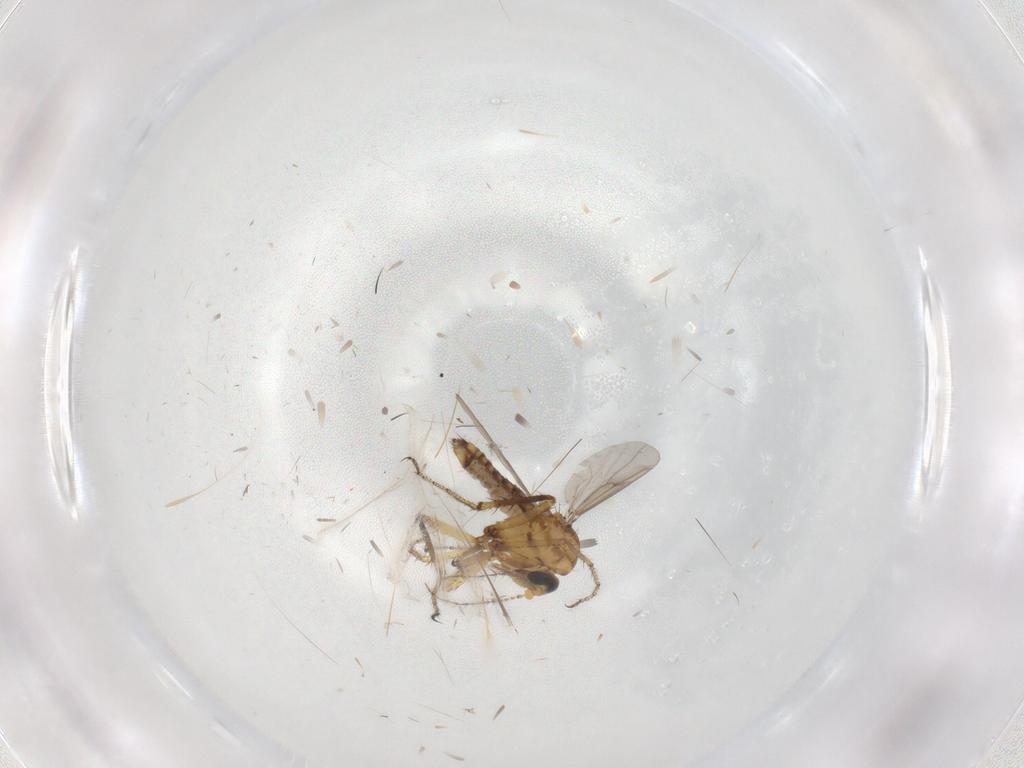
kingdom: Animalia
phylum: Arthropoda
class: Insecta
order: Diptera
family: Ceratopogonidae
